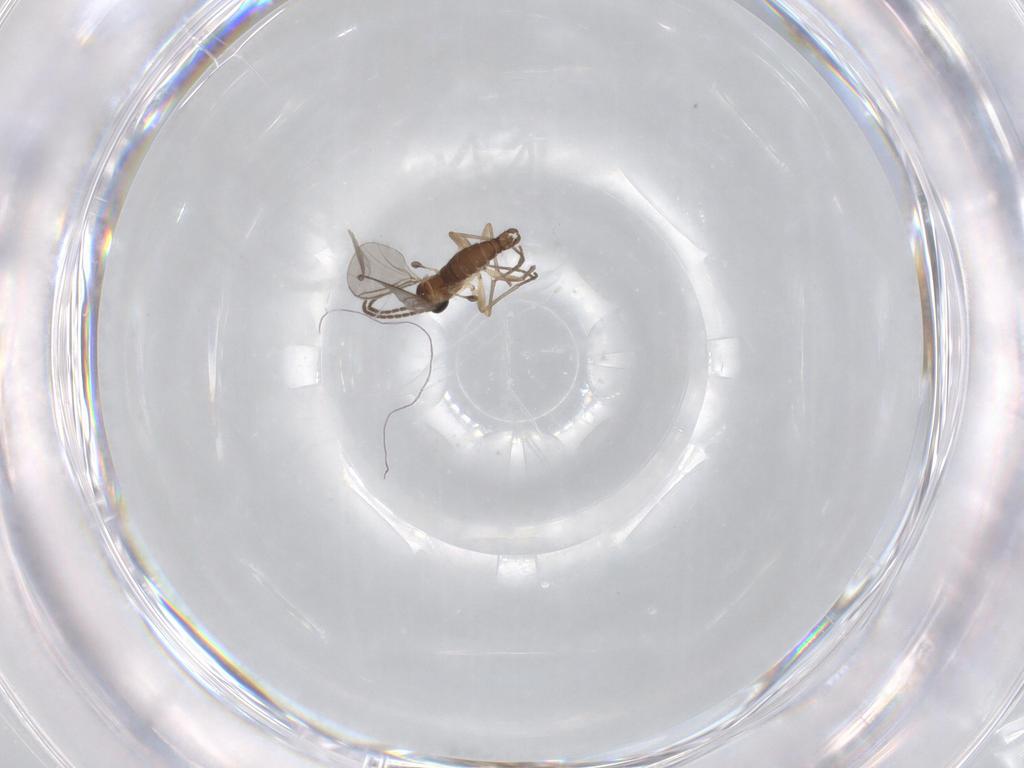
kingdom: Animalia
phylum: Arthropoda
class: Insecta
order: Diptera
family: Sciaridae
